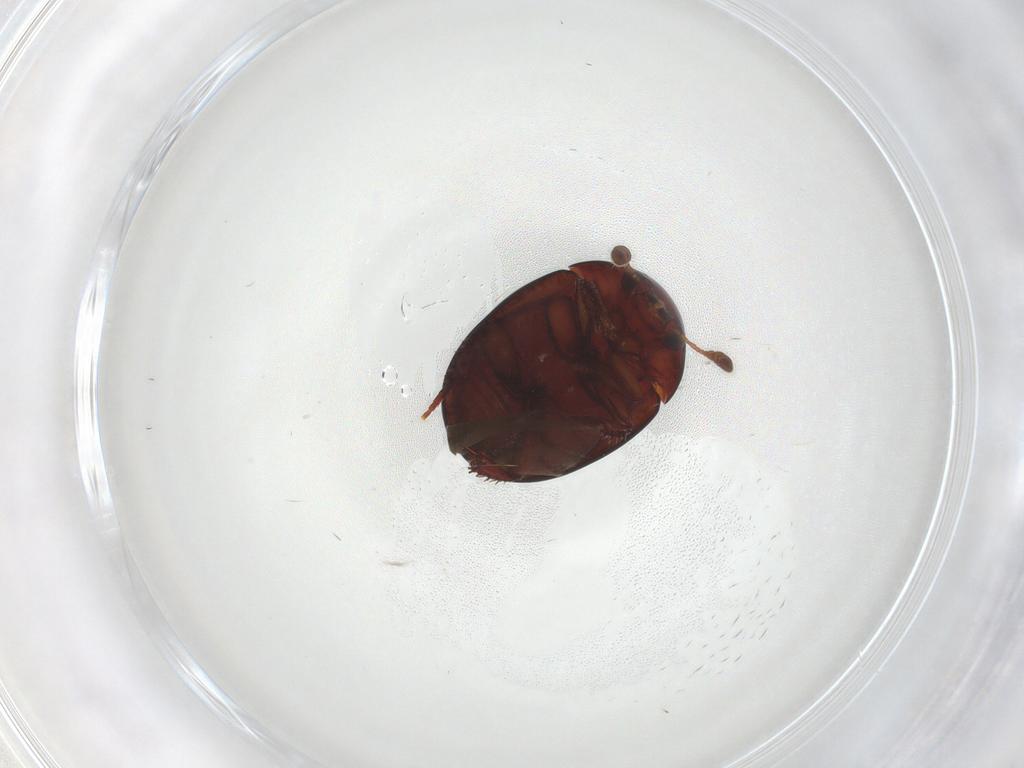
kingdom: Animalia
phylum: Arthropoda
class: Insecta
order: Coleoptera
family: Leiodidae
